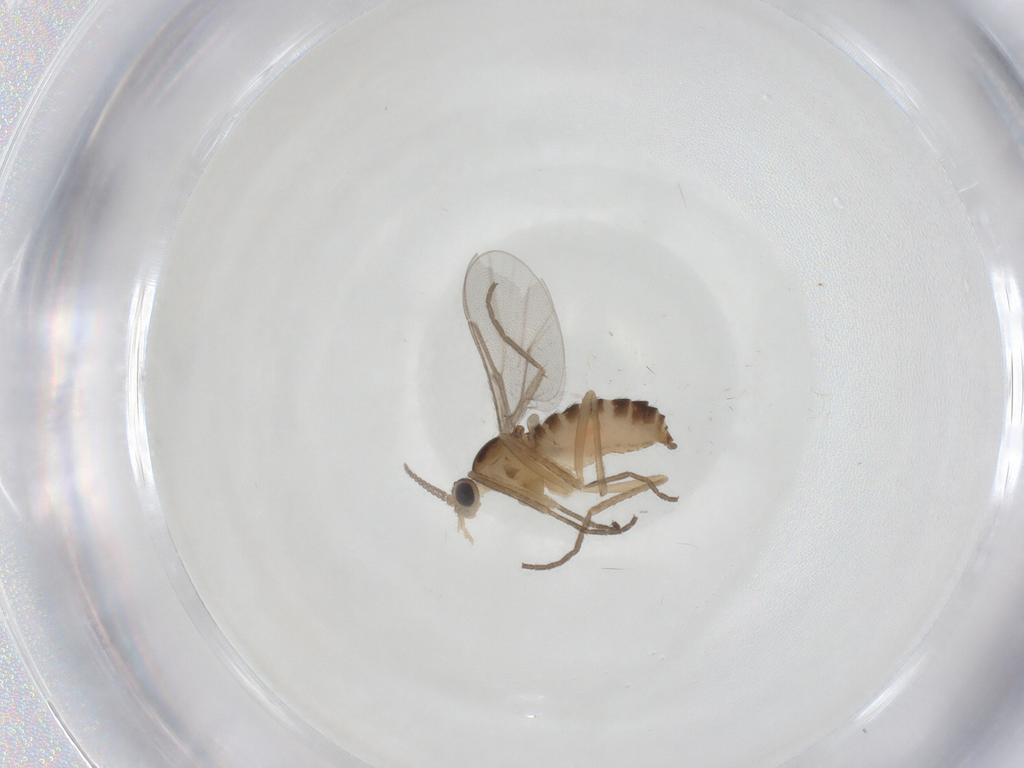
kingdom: Animalia
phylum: Arthropoda
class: Insecta
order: Diptera
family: Cecidomyiidae
